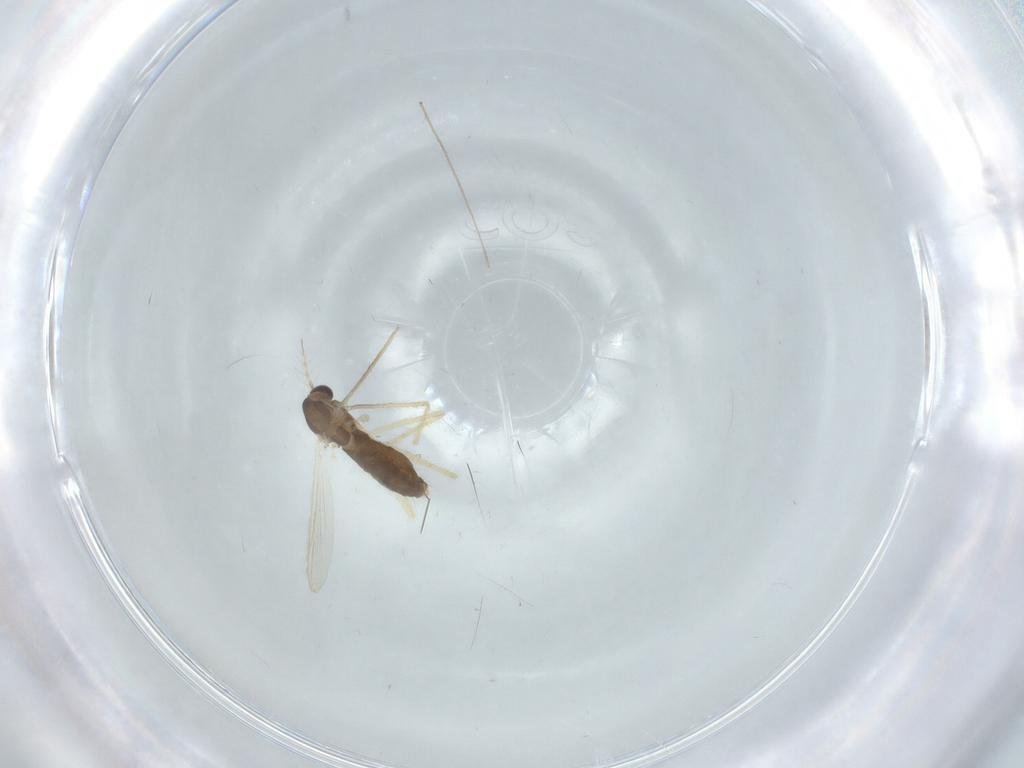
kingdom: Animalia
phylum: Arthropoda
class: Insecta
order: Diptera
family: Chironomidae
